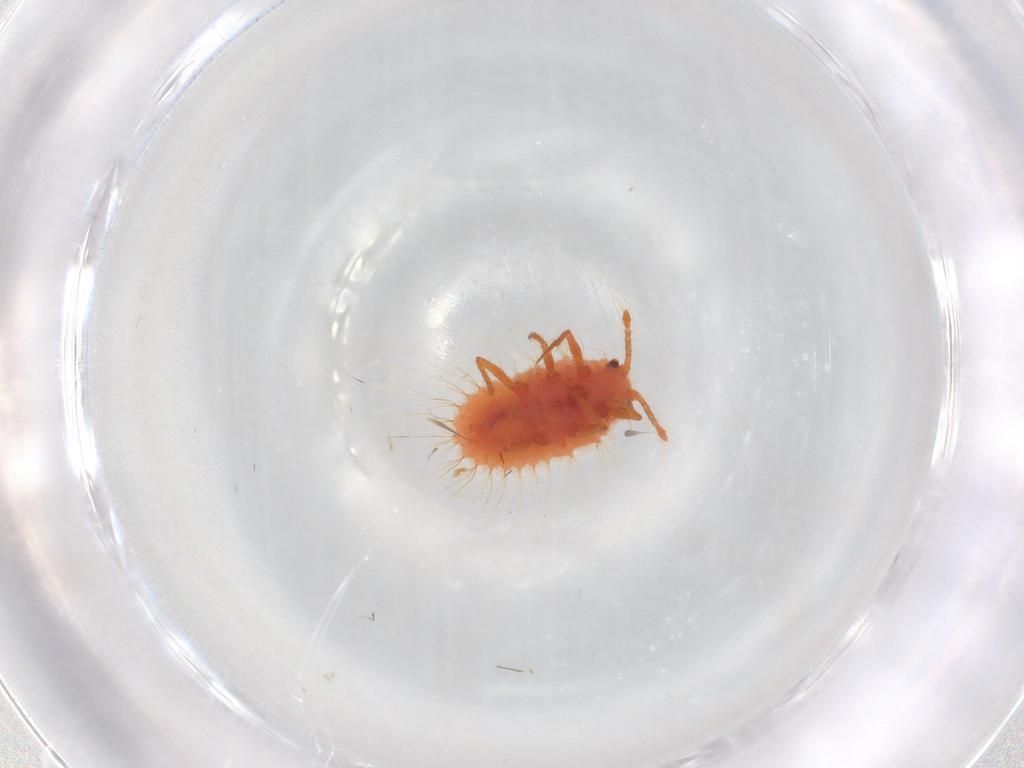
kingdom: Animalia
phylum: Arthropoda
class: Insecta
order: Hemiptera
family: Coccoidea_incertae_sedis
